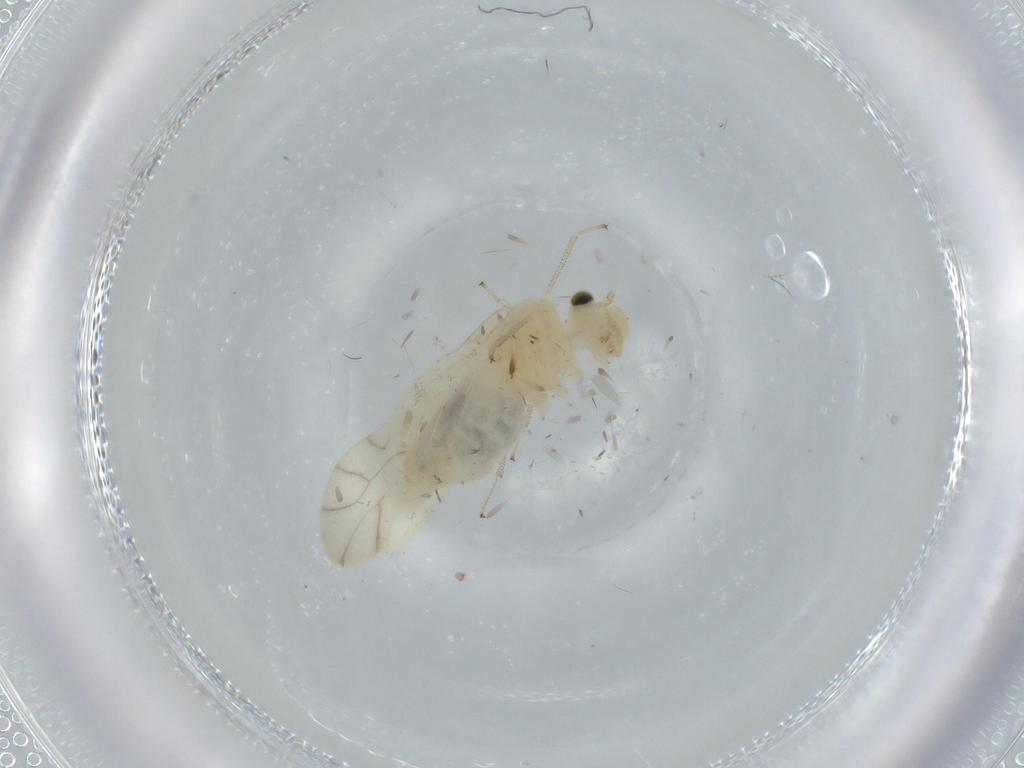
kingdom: Animalia
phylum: Arthropoda
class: Insecta
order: Psocodea
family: Caeciliusidae
